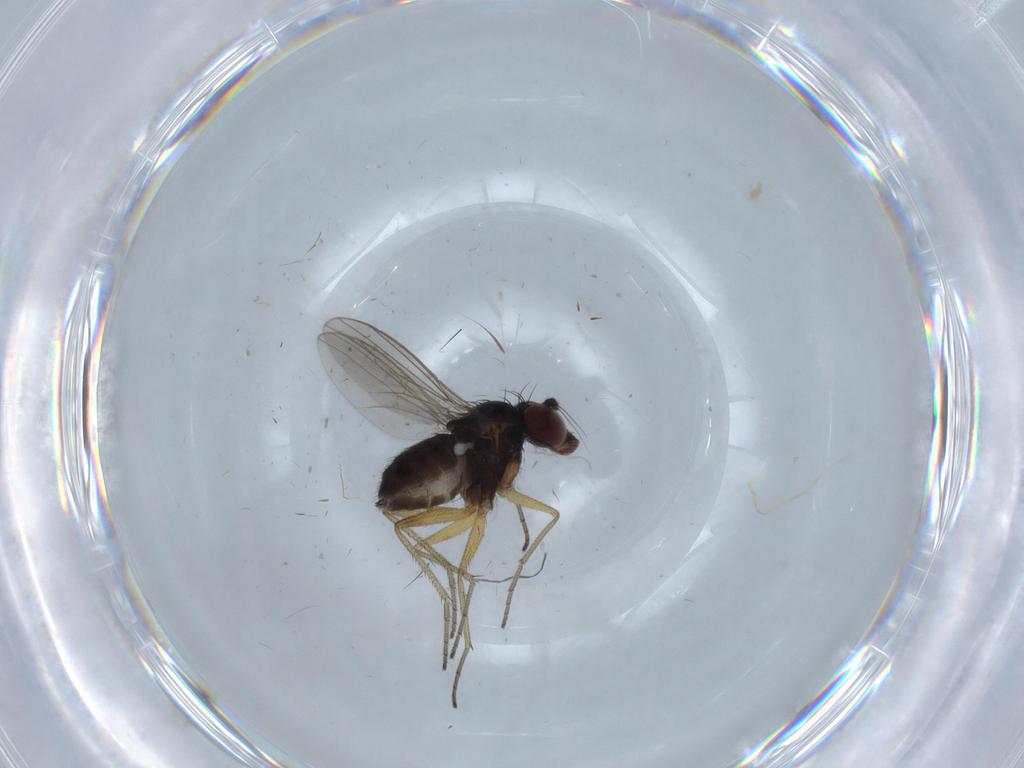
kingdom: Animalia
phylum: Arthropoda
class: Insecta
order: Diptera
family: Dolichopodidae
